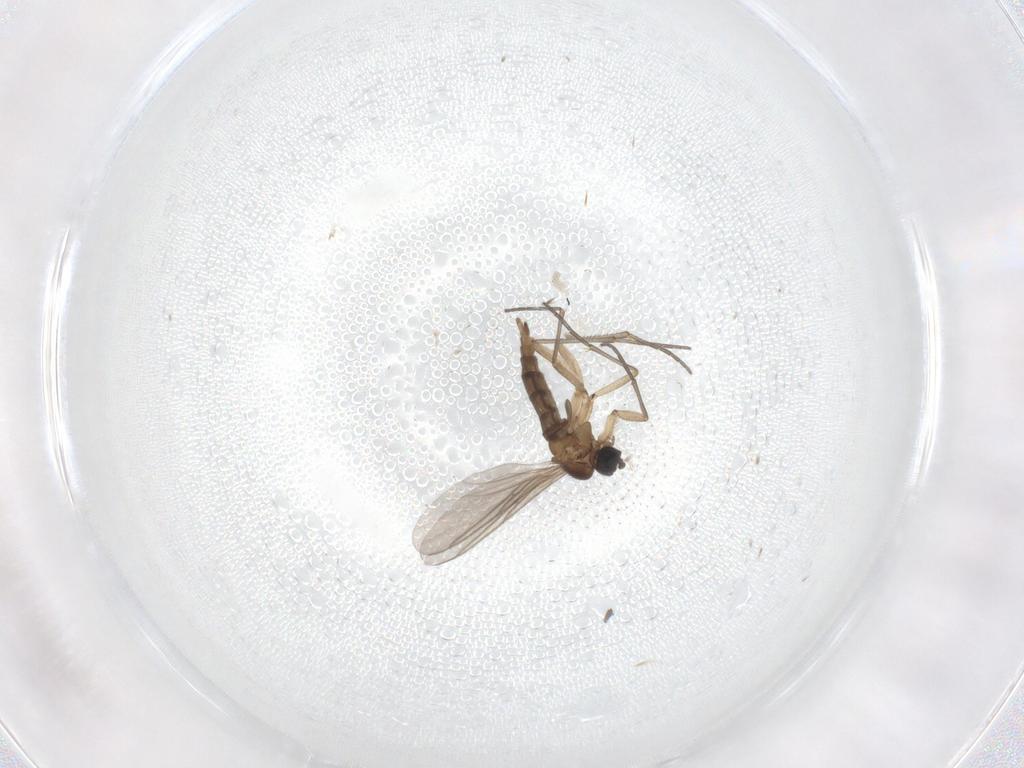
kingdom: Animalia
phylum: Arthropoda
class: Insecta
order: Diptera
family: Sciaridae
